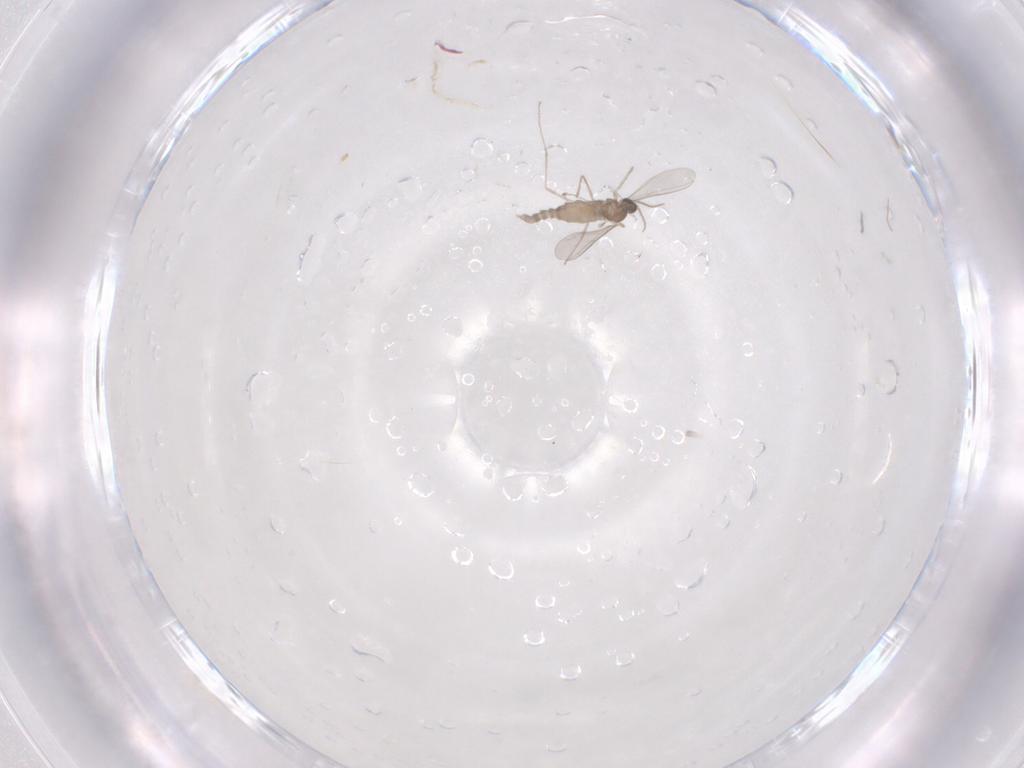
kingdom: Animalia
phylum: Arthropoda
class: Insecta
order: Diptera
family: Cecidomyiidae
